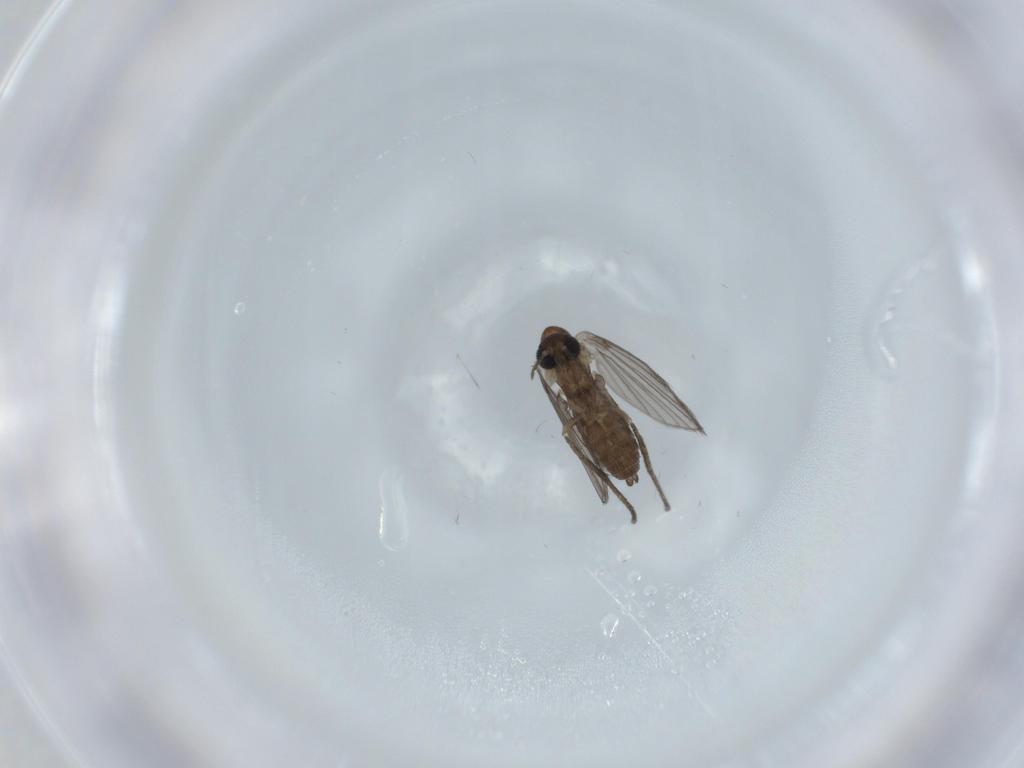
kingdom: Animalia
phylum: Arthropoda
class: Insecta
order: Diptera
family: Psychodidae
